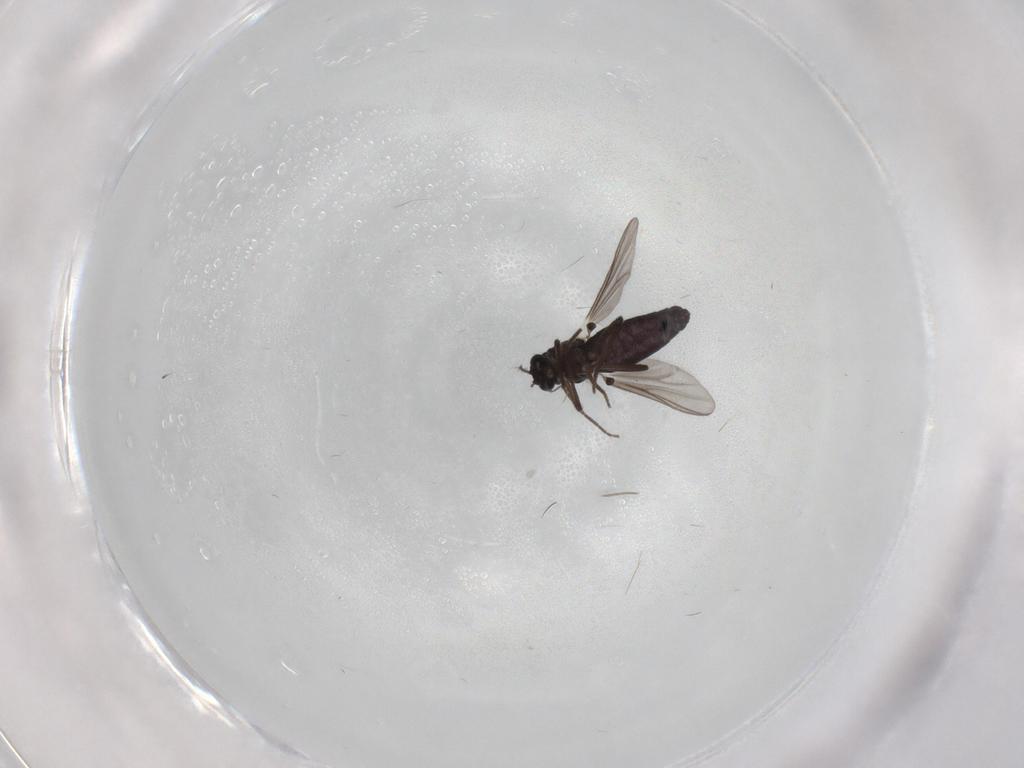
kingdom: Animalia
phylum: Arthropoda
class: Insecta
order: Diptera
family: Chironomidae
